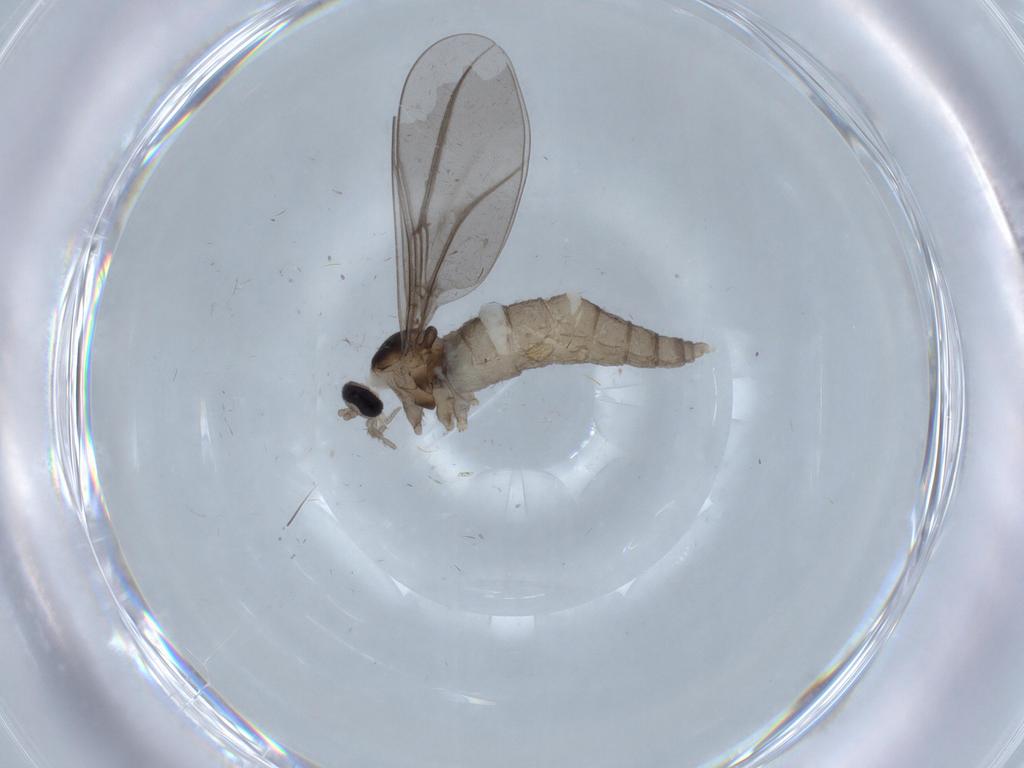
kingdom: Animalia
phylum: Arthropoda
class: Insecta
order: Diptera
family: Cecidomyiidae
